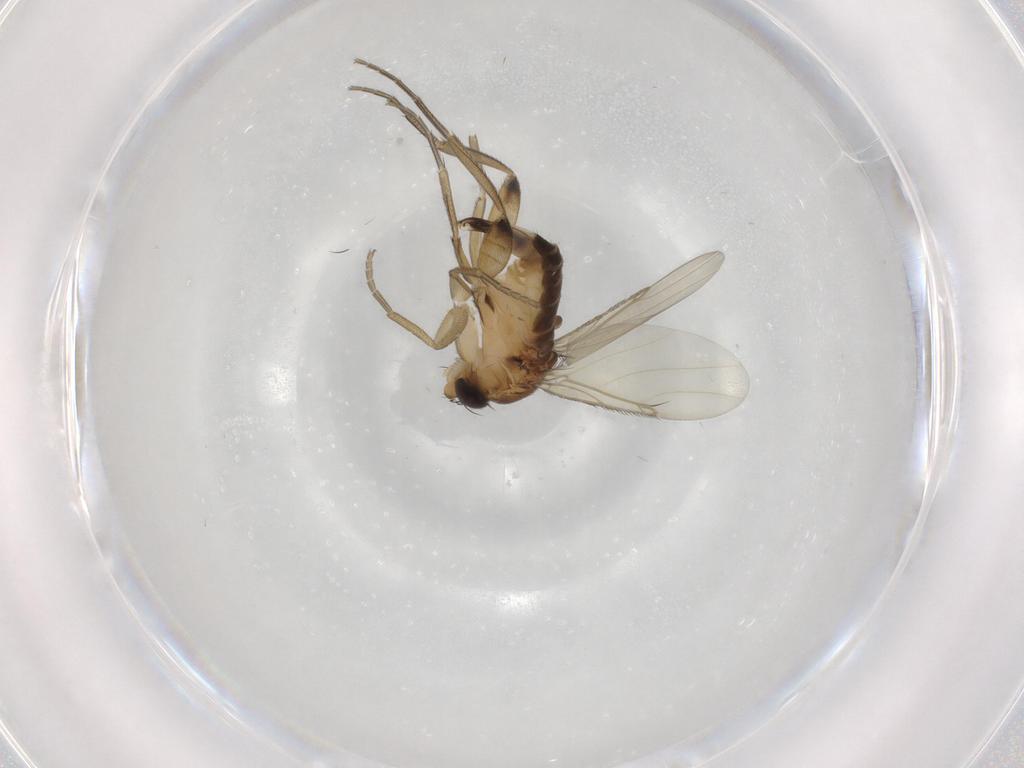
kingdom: Animalia
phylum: Arthropoda
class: Insecta
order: Diptera
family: Phoridae
